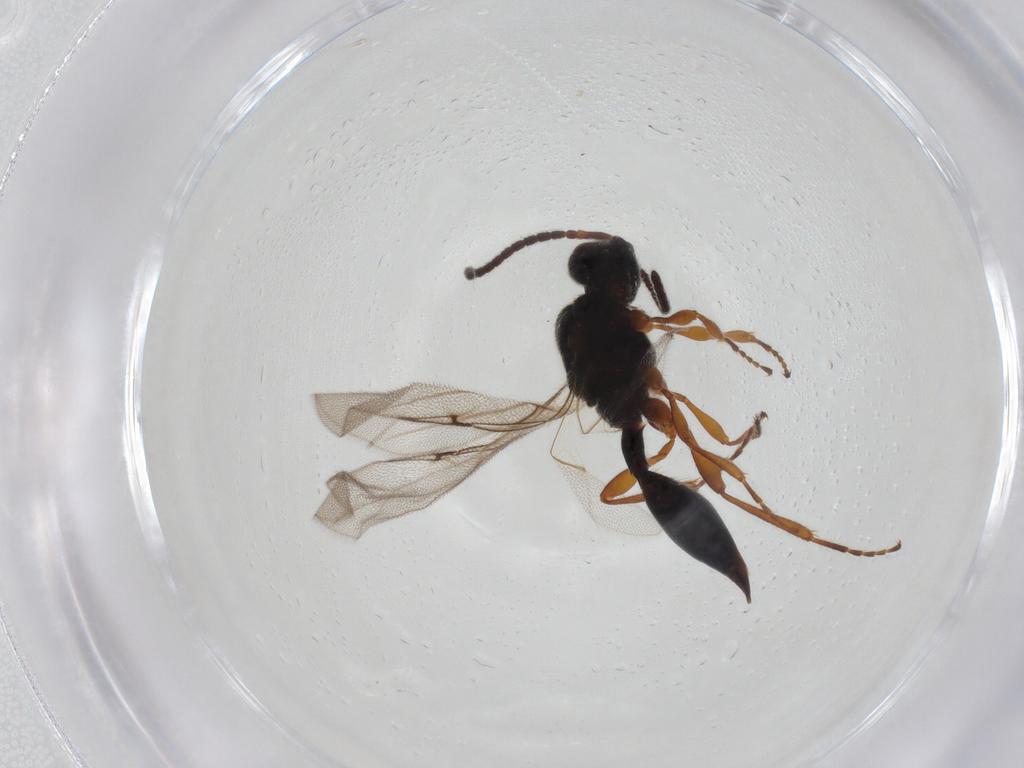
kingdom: Animalia
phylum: Arthropoda
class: Insecta
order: Hymenoptera
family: Diapriidae
